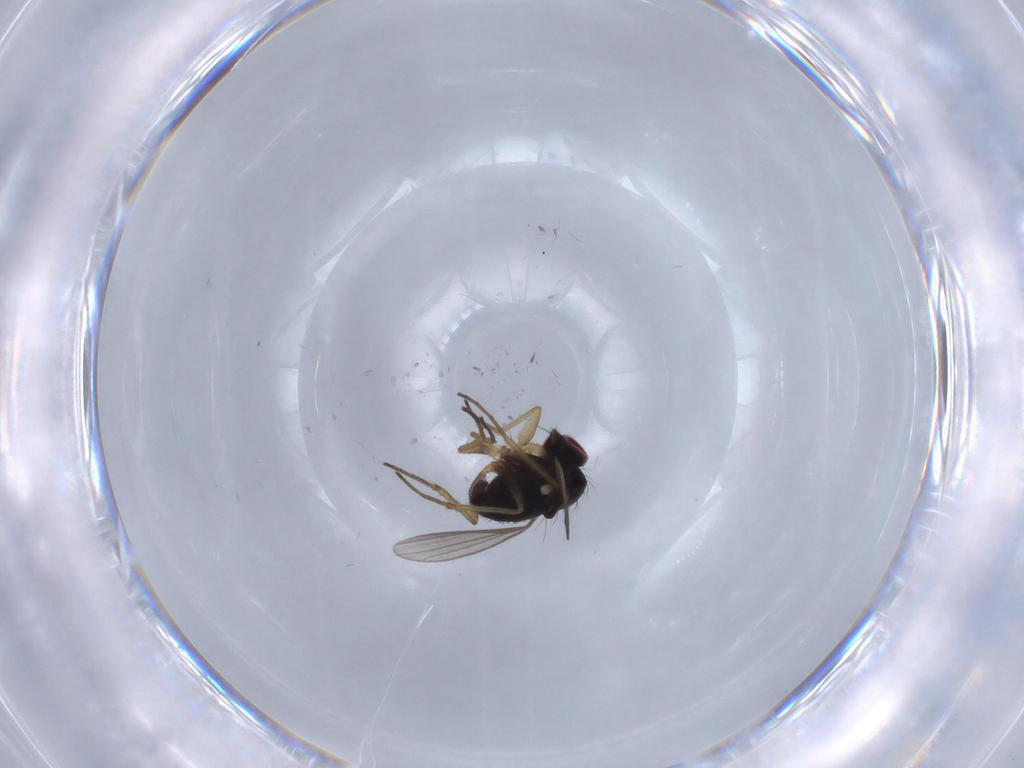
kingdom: Animalia
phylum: Arthropoda
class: Insecta
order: Diptera
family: Dolichopodidae
